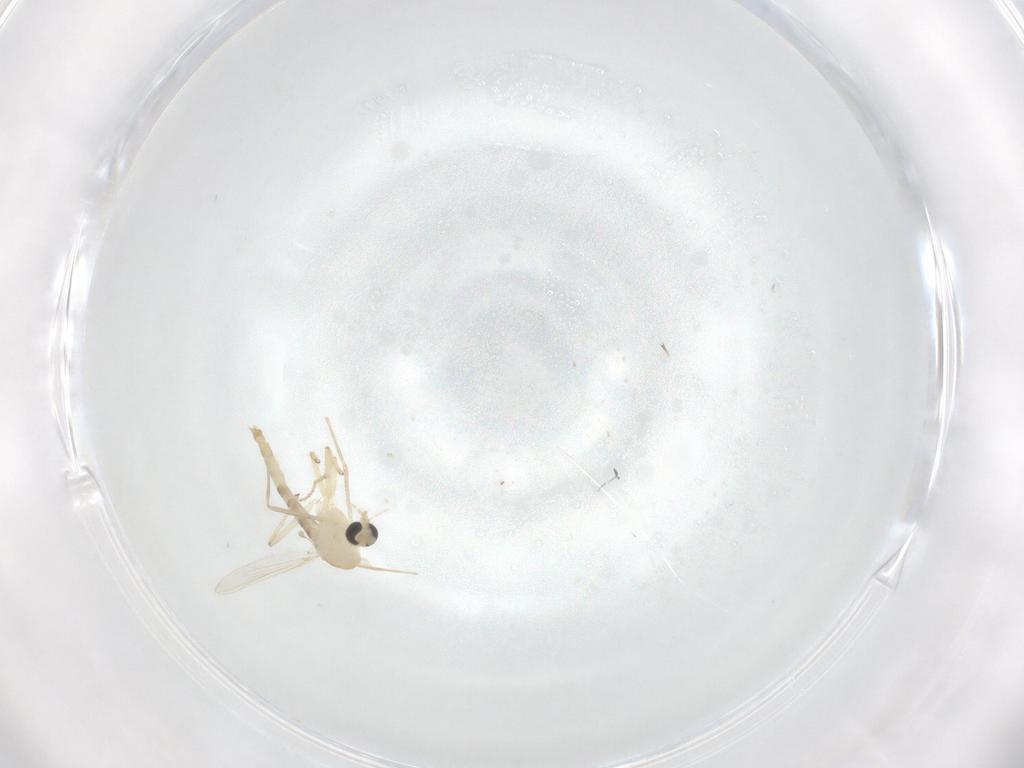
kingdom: Animalia
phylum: Arthropoda
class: Insecta
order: Diptera
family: Chironomidae
